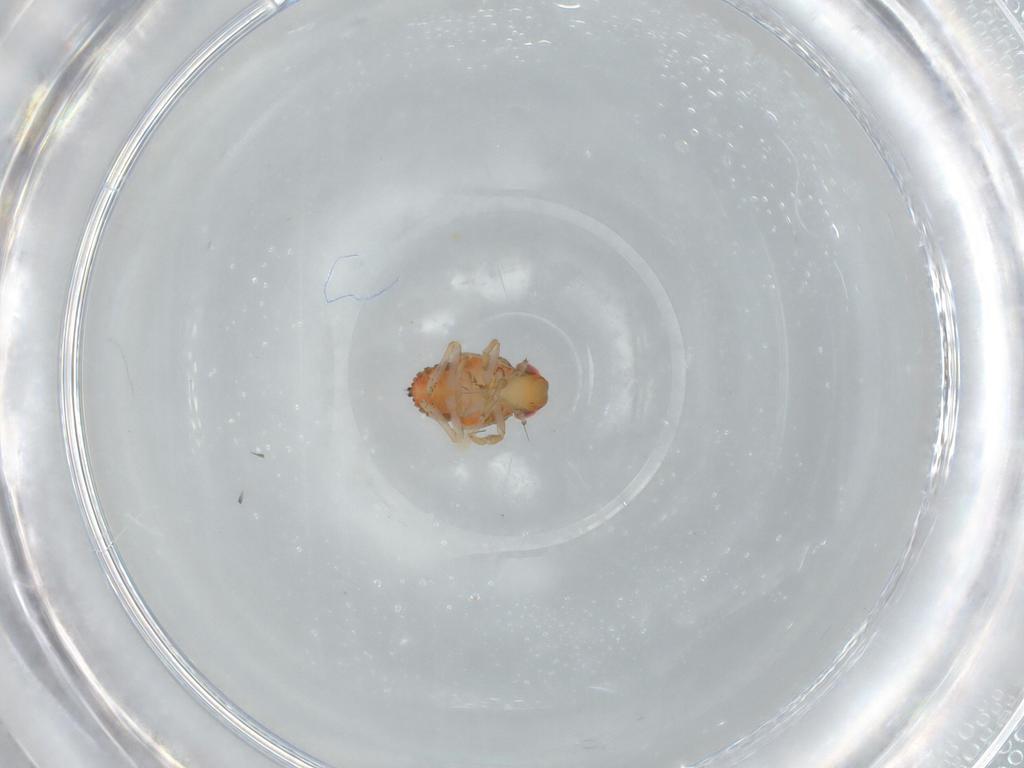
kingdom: Animalia
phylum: Arthropoda
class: Insecta
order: Hemiptera
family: Issidae
